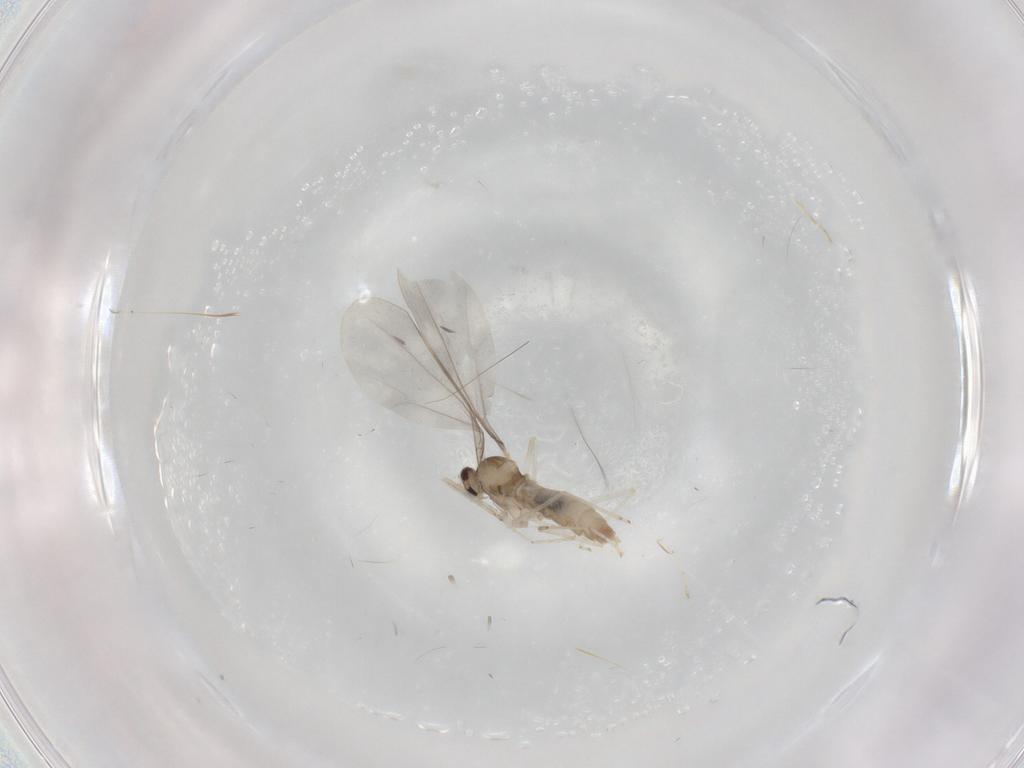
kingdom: Animalia
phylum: Arthropoda
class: Insecta
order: Diptera
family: Cecidomyiidae
